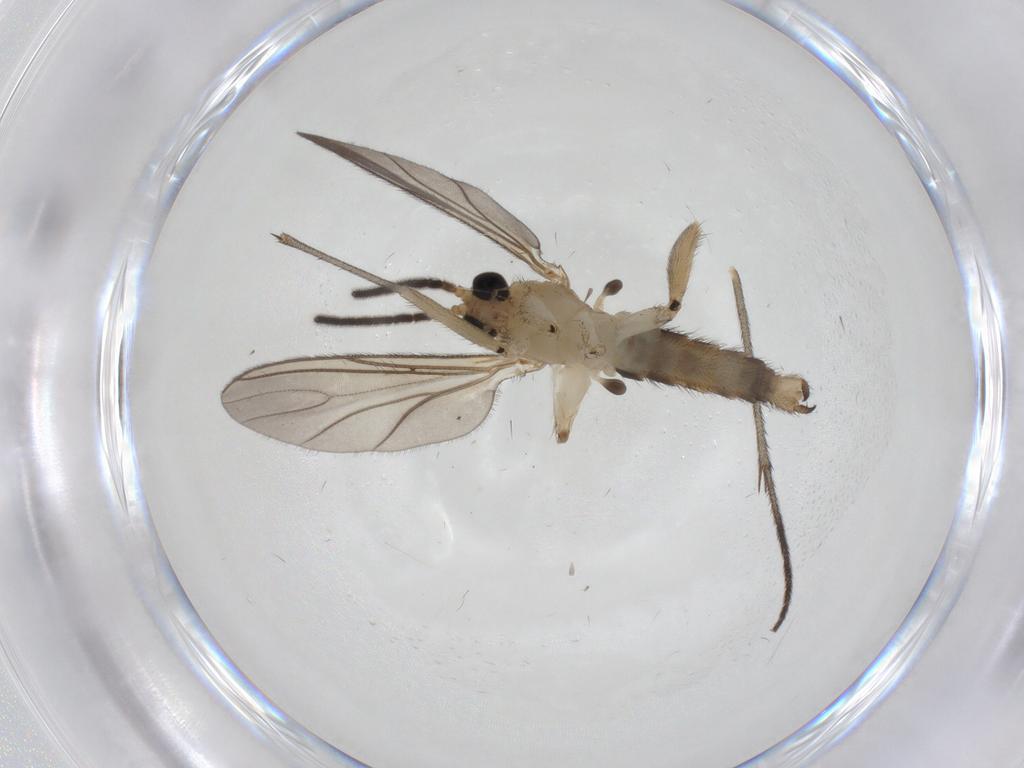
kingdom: Animalia
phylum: Arthropoda
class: Insecta
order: Diptera
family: Sciaridae
